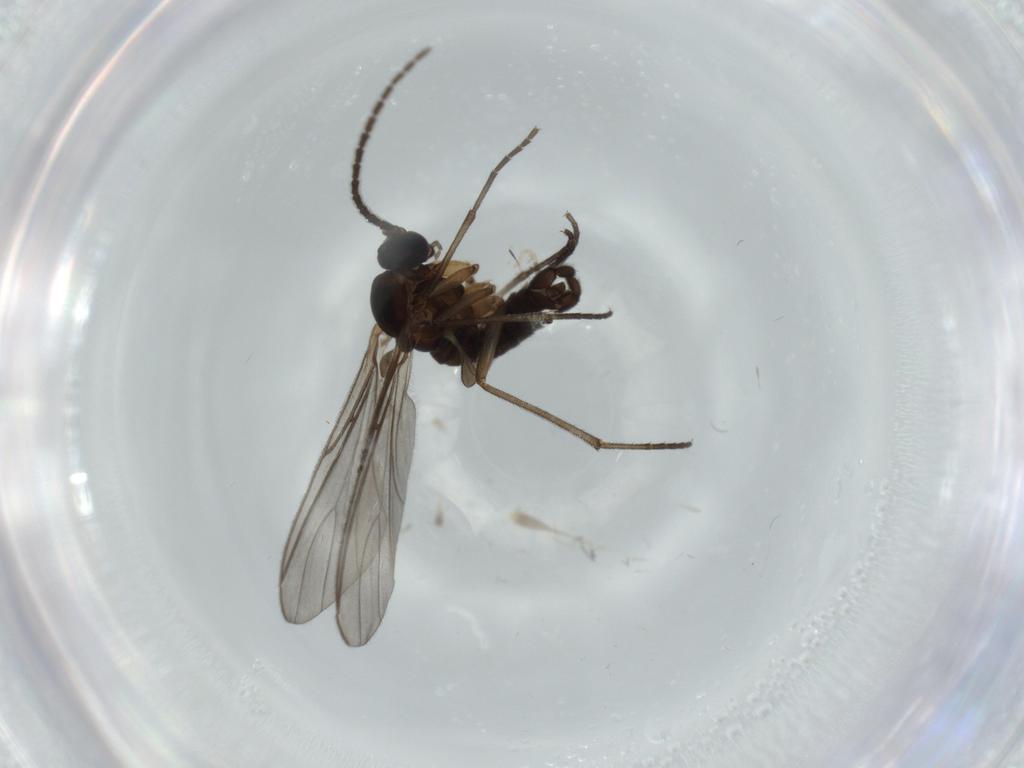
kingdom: Animalia
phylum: Arthropoda
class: Insecta
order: Diptera
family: Sciaridae
